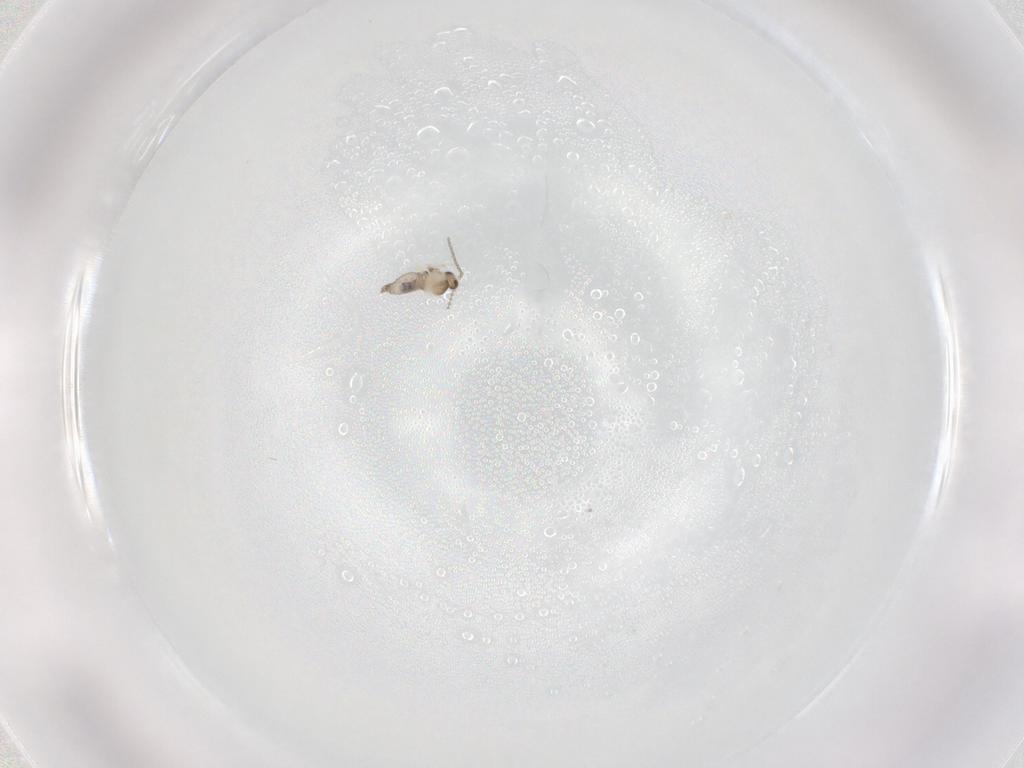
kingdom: Animalia
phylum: Arthropoda
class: Insecta
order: Diptera
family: Cecidomyiidae
